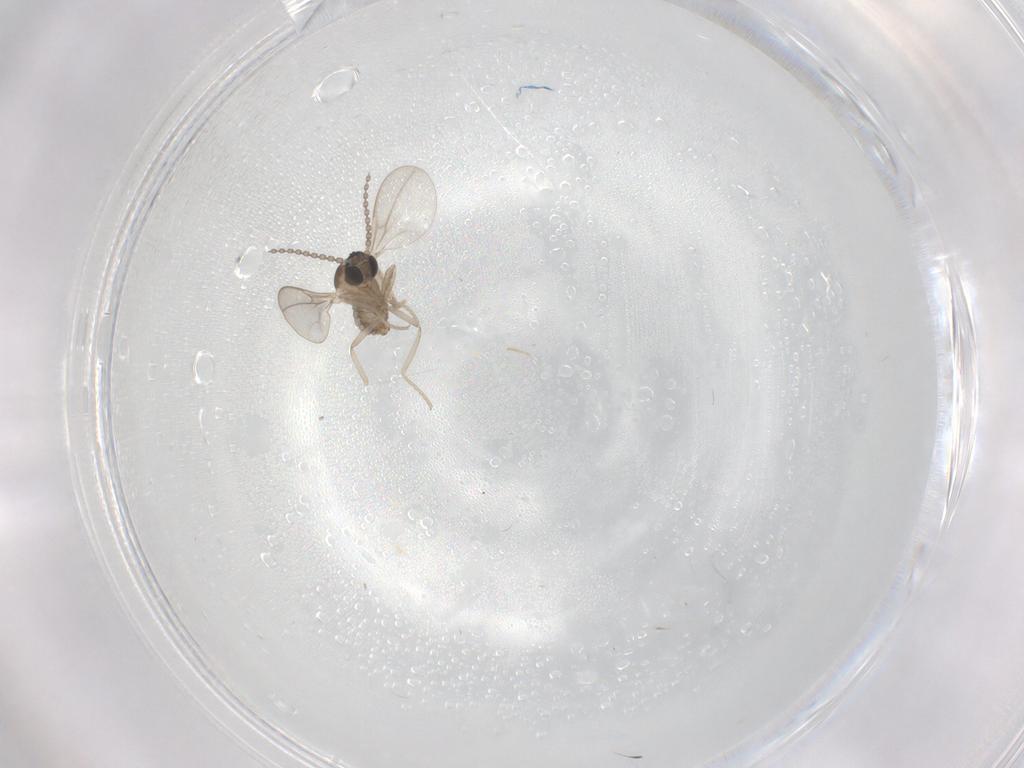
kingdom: Animalia
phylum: Arthropoda
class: Insecta
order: Diptera
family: Cecidomyiidae
